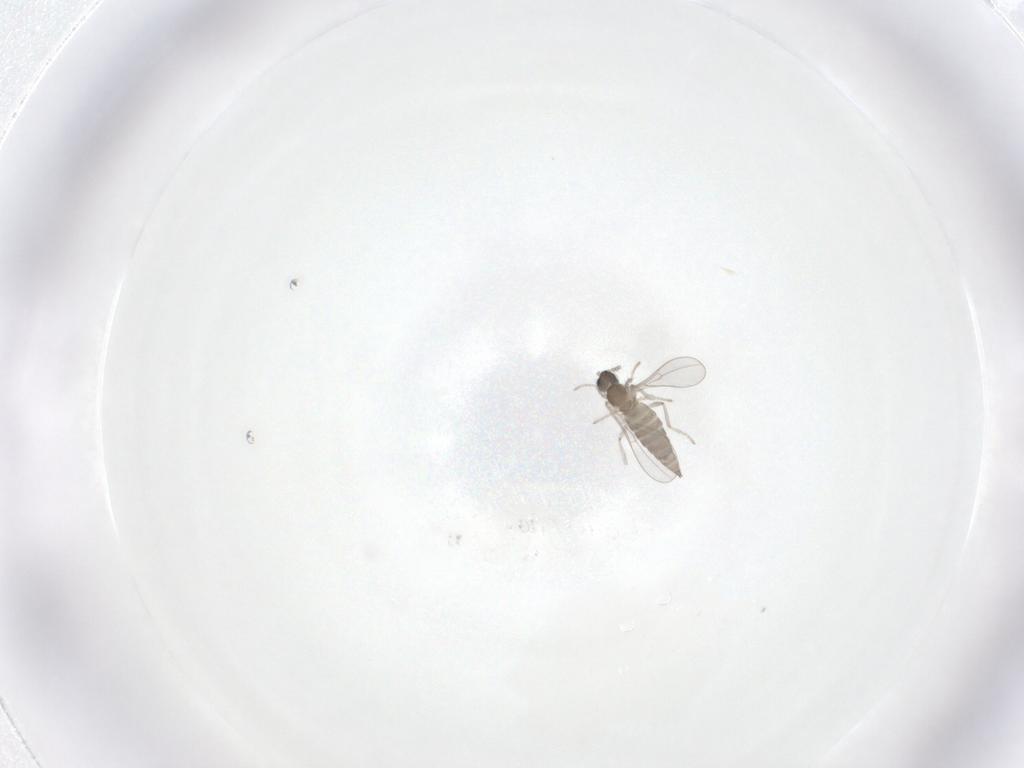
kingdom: Animalia
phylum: Arthropoda
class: Insecta
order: Diptera
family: Cecidomyiidae
